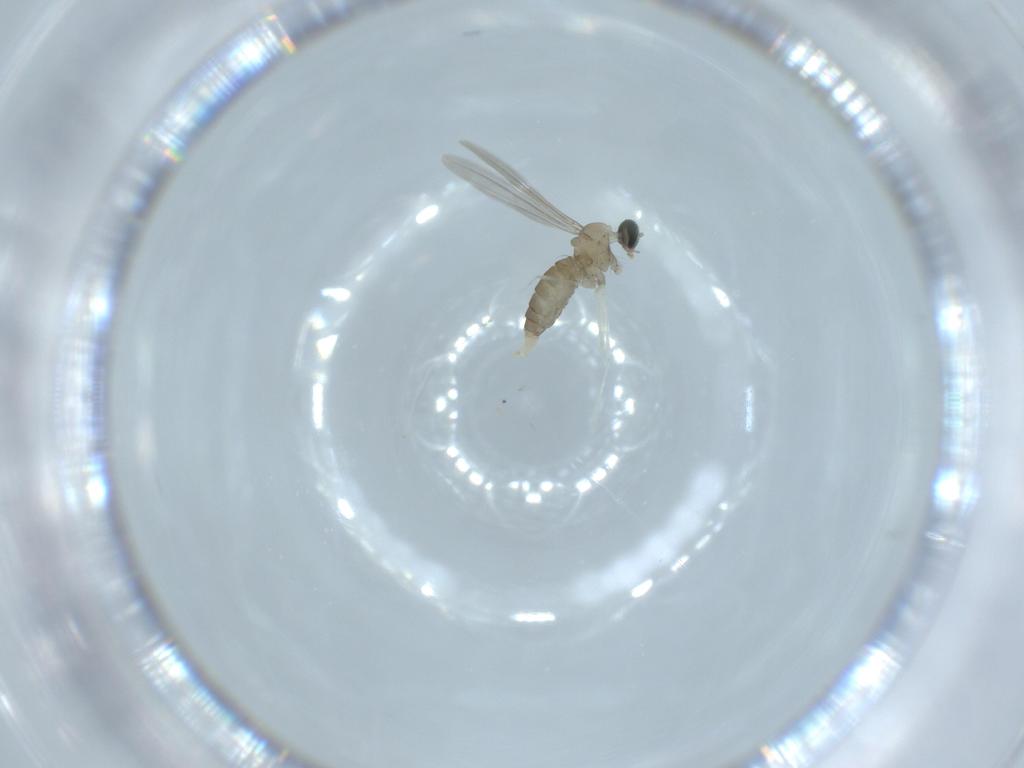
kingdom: Animalia
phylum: Arthropoda
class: Insecta
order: Diptera
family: Cecidomyiidae
